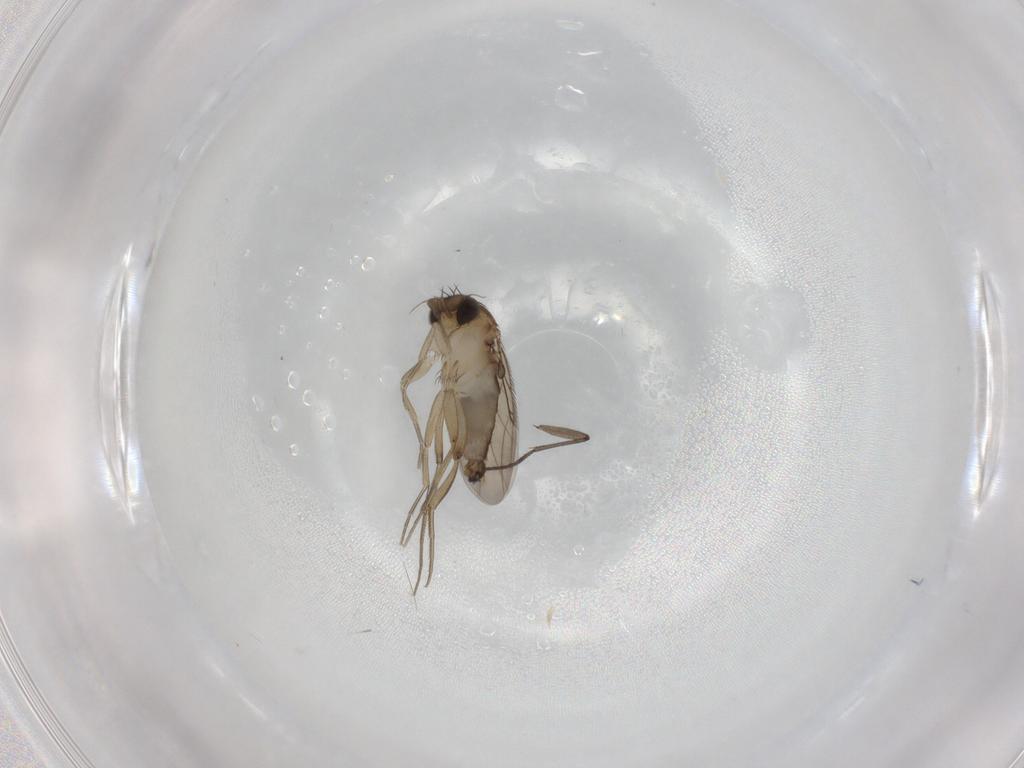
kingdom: Animalia
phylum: Arthropoda
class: Insecta
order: Diptera
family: Phoridae
